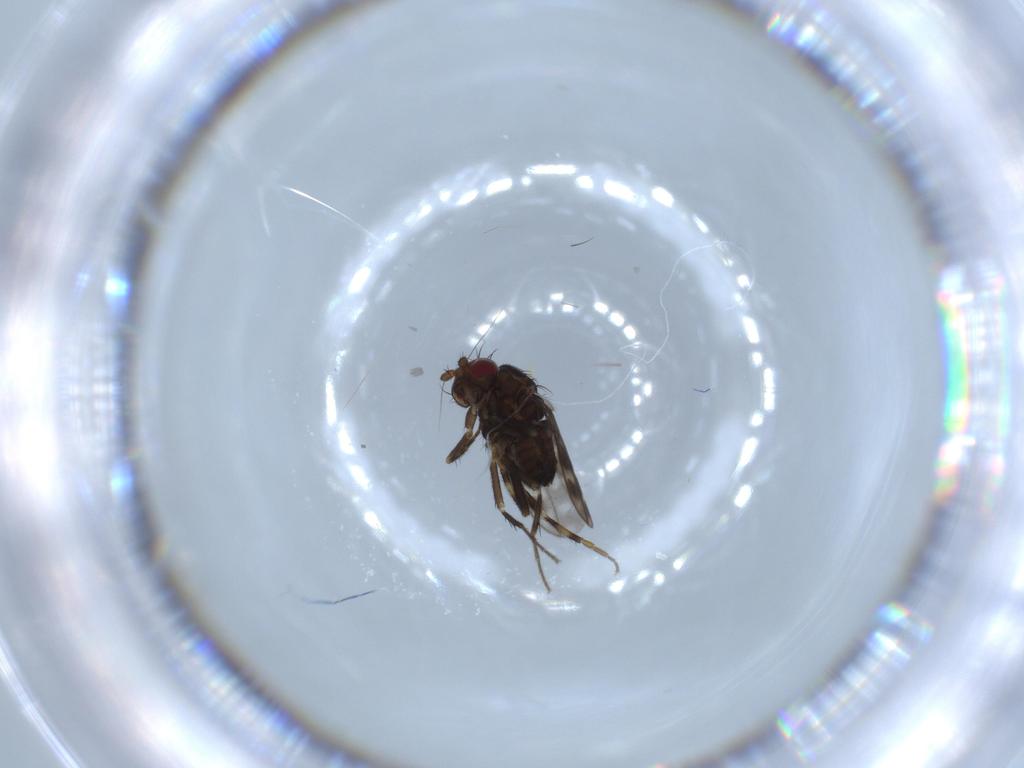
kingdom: Animalia
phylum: Arthropoda
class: Insecta
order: Diptera
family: Sphaeroceridae
